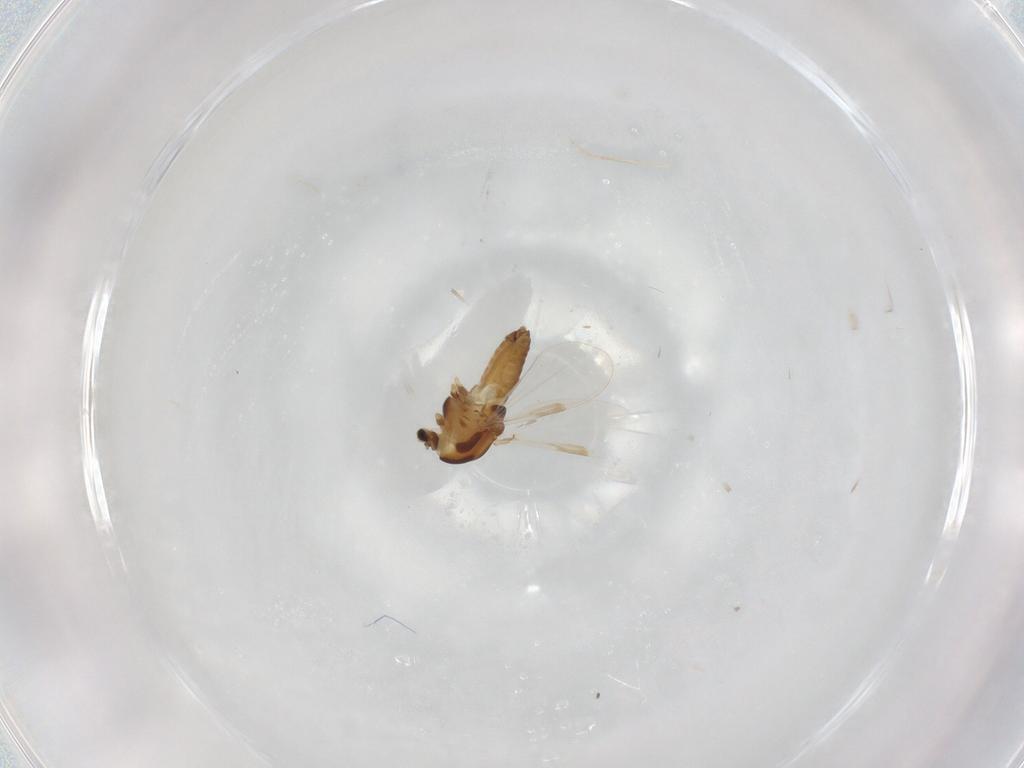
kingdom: Animalia
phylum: Arthropoda
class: Insecta
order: Diptera
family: Chironomidae
